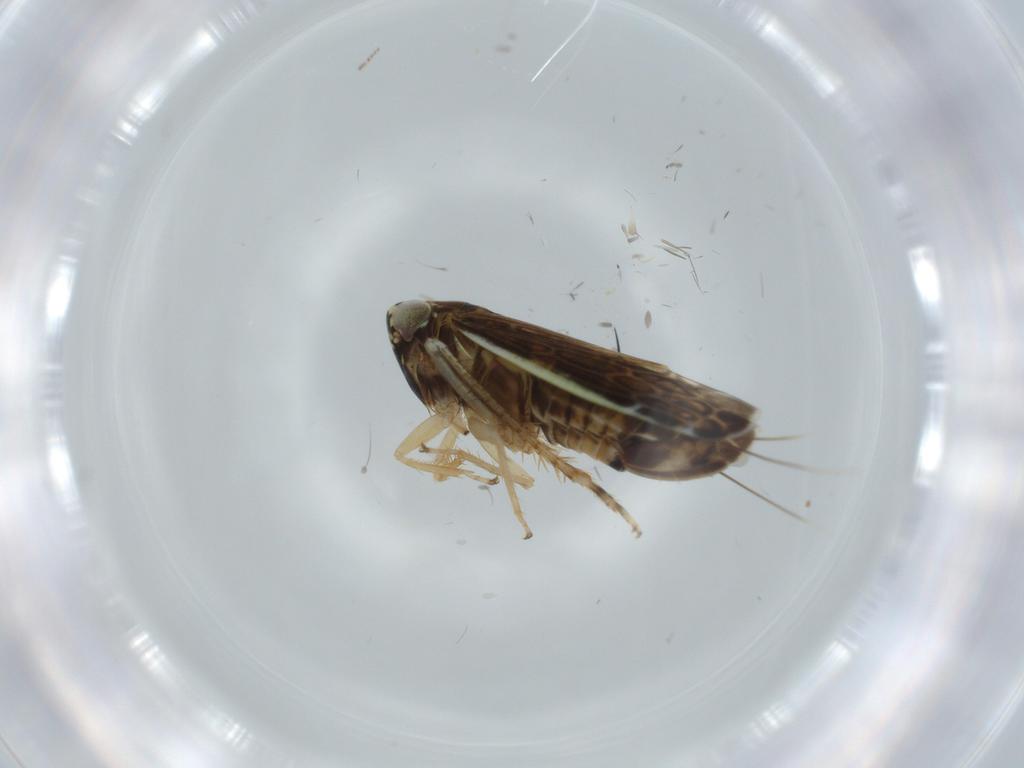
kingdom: Animalia
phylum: Arthropoda
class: Insecta
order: Hemiptera
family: Cicadellidae
